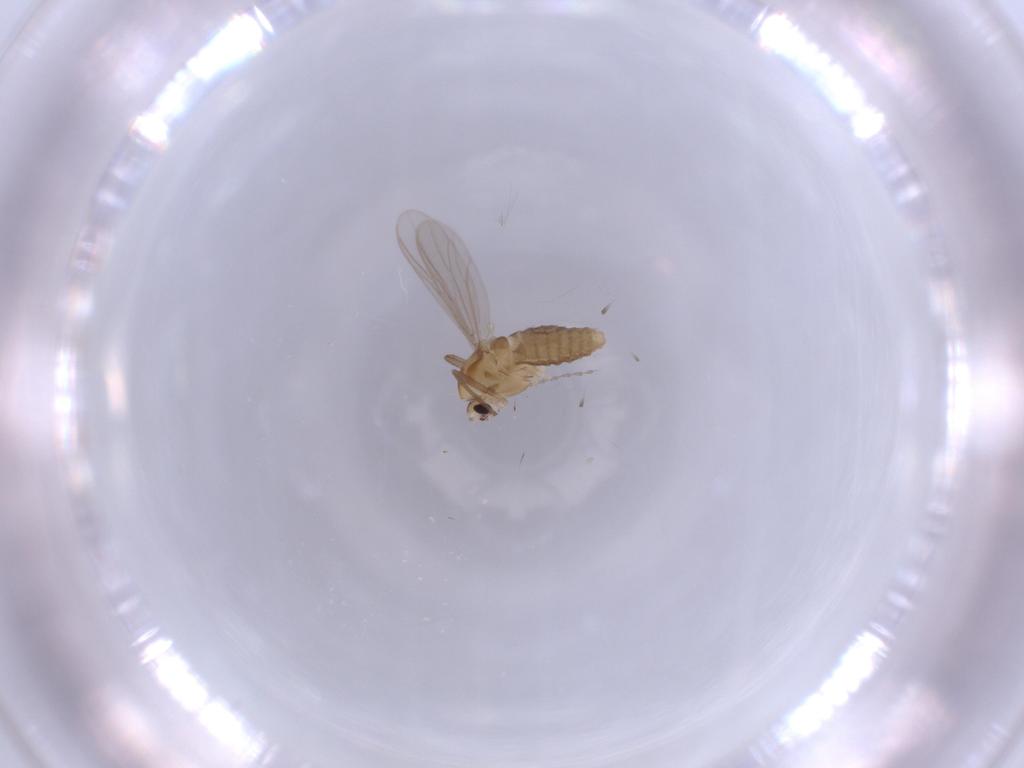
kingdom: Animalia
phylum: Arthropoda
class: Insecta
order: Diptera
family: Chironomidae
